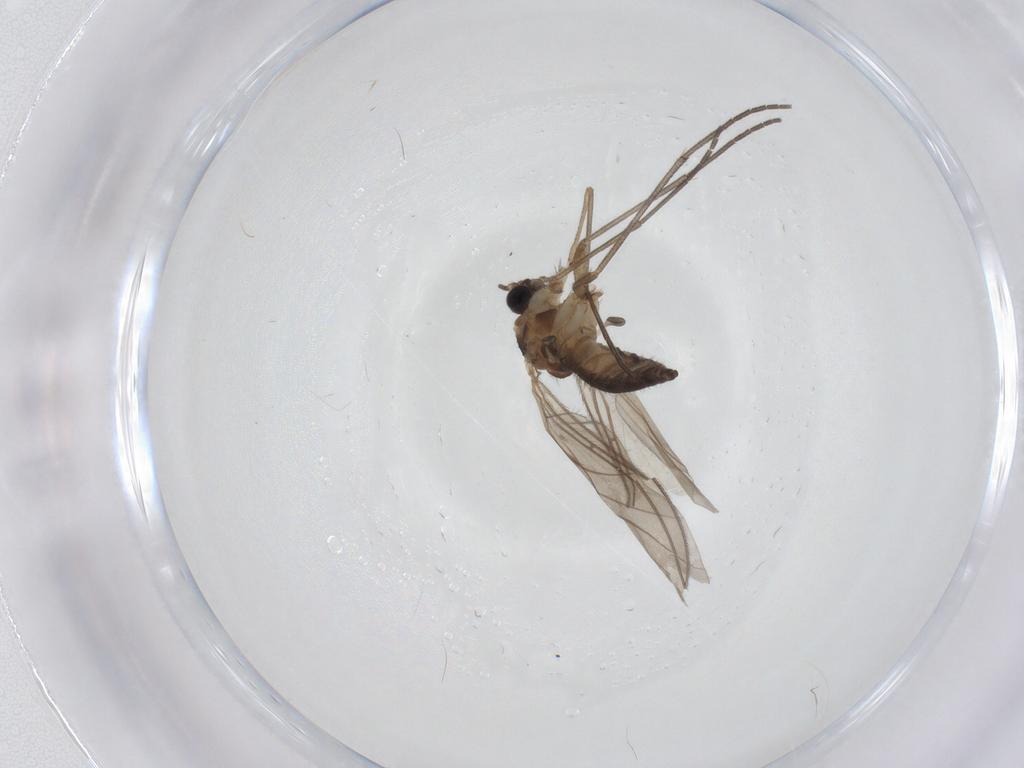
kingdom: Animalia
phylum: Arthropoda
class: Insecta
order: Diptera
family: Sciaridae
